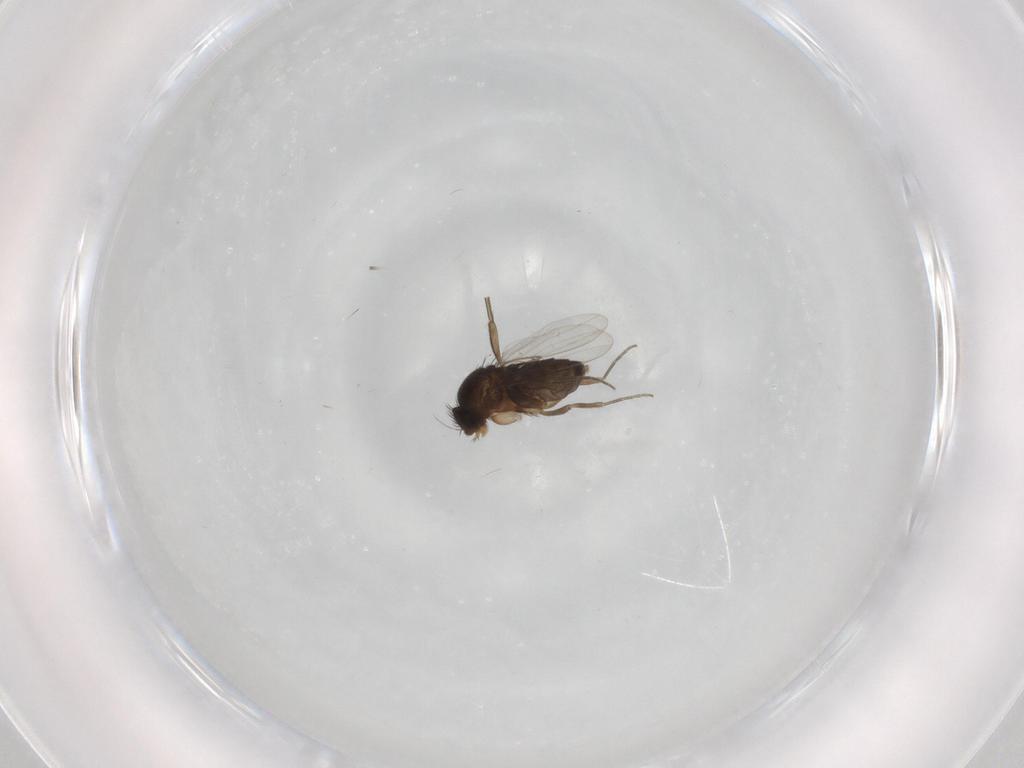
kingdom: Animalia
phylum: Arthropoda
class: Insecta
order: Diptera
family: Phoridae
